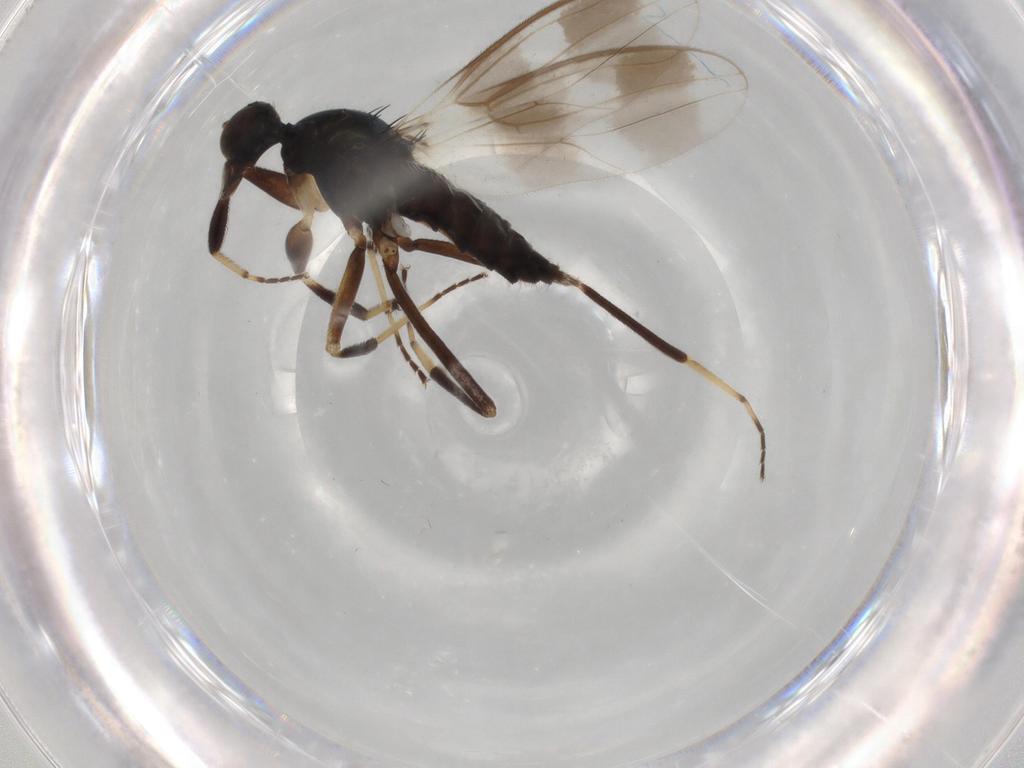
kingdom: Animalia
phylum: Arthropoda
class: Insecta
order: Diptera
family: Hybotidae
